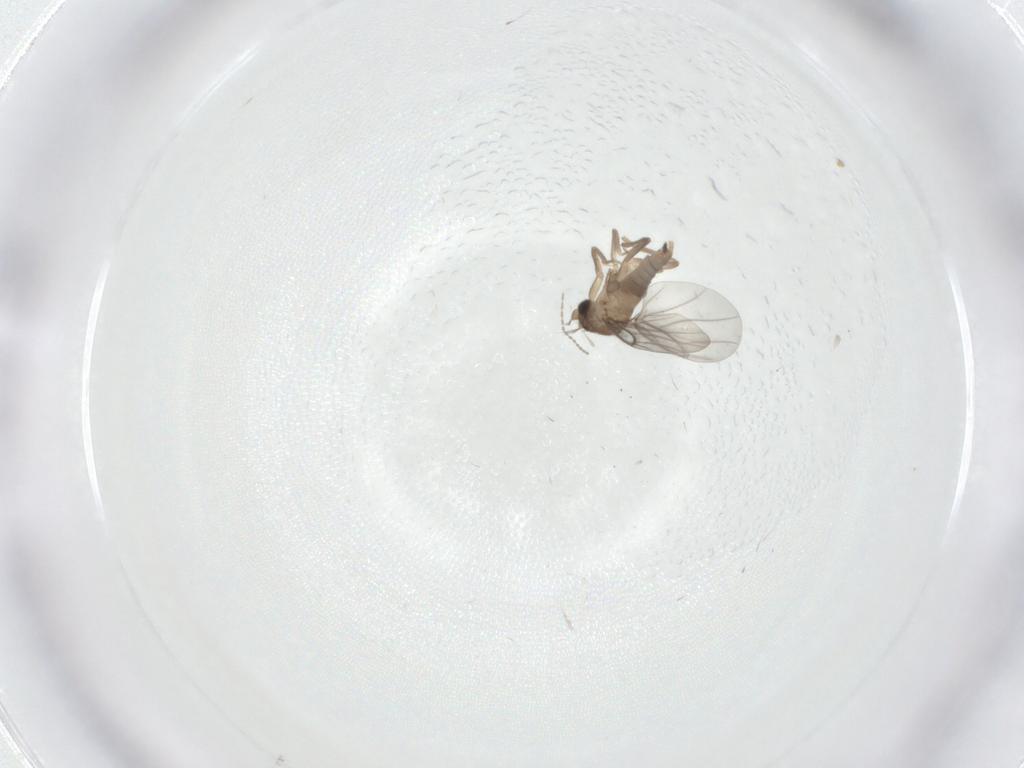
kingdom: Animalia
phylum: Arthropoda
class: Insecta
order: Diptera
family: Cecidomyiidae
